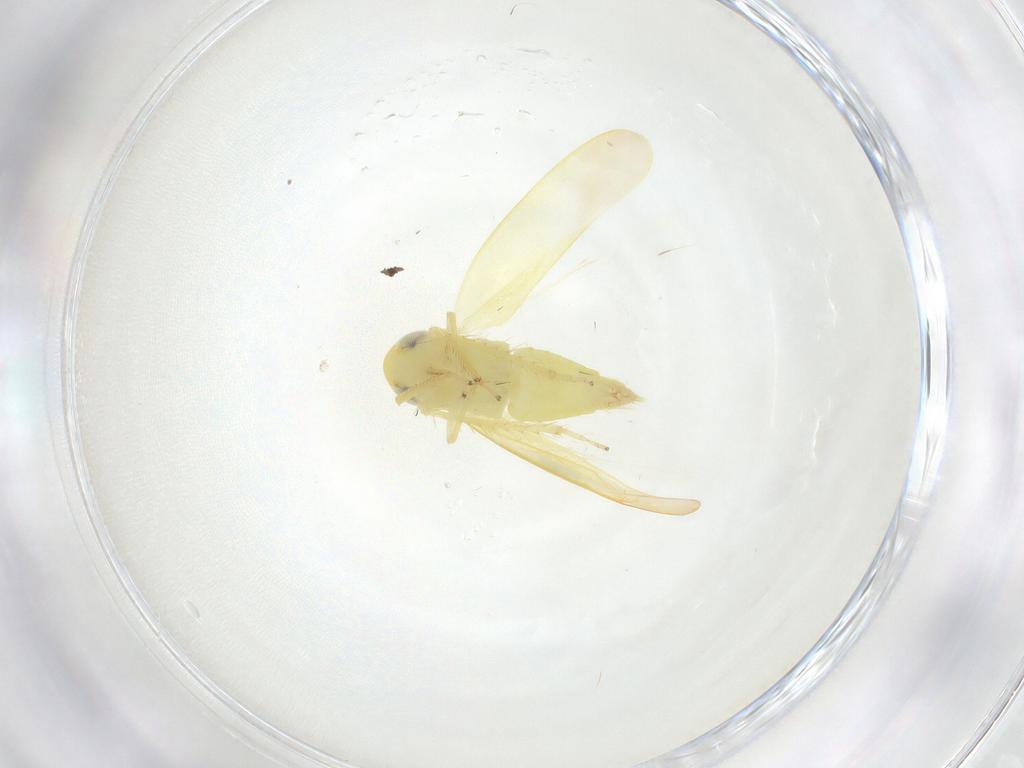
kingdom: Animalia
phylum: Arthropoda
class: Insecta
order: Hemiptera
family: Cicadellidae
